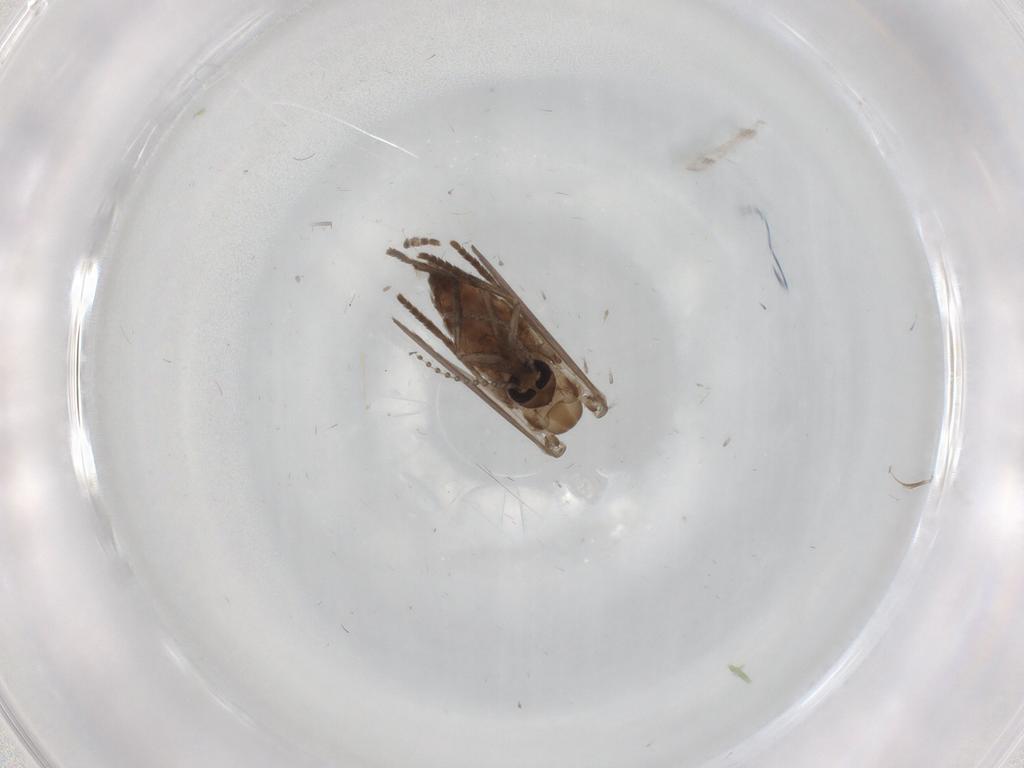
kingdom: Animalia
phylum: Arthropoda
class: Insecta
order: Diptera
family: Psychodidae
